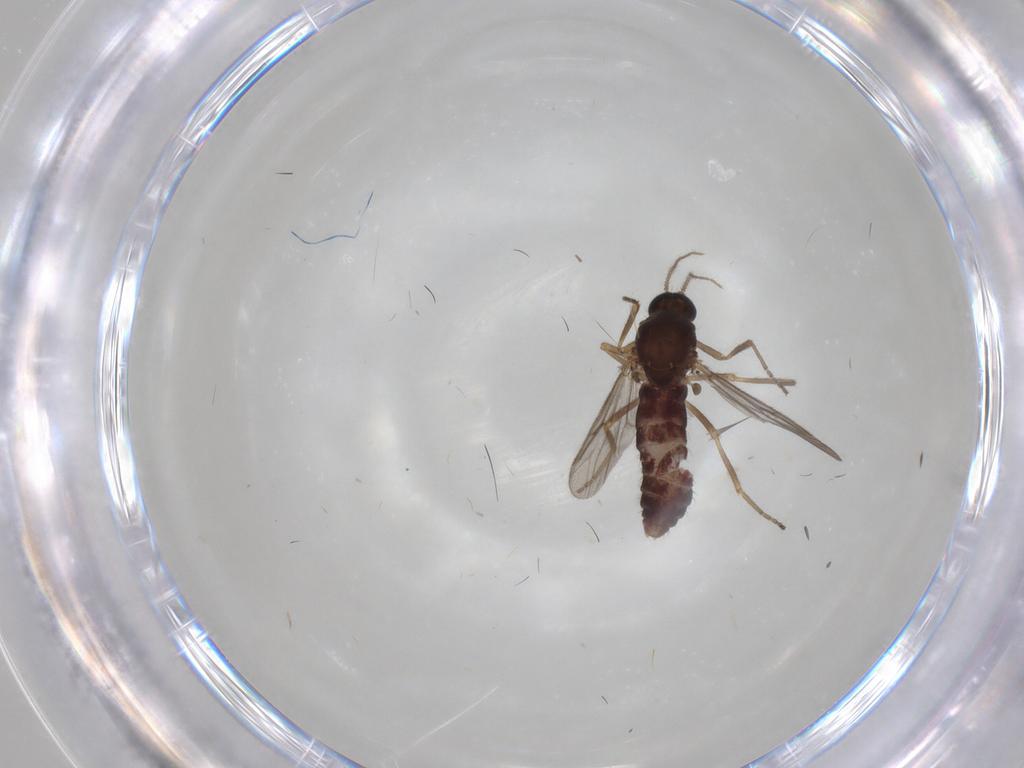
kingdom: Animalia
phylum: Arthropoda
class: Insecta
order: Diptera
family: Ceratopogonidae
